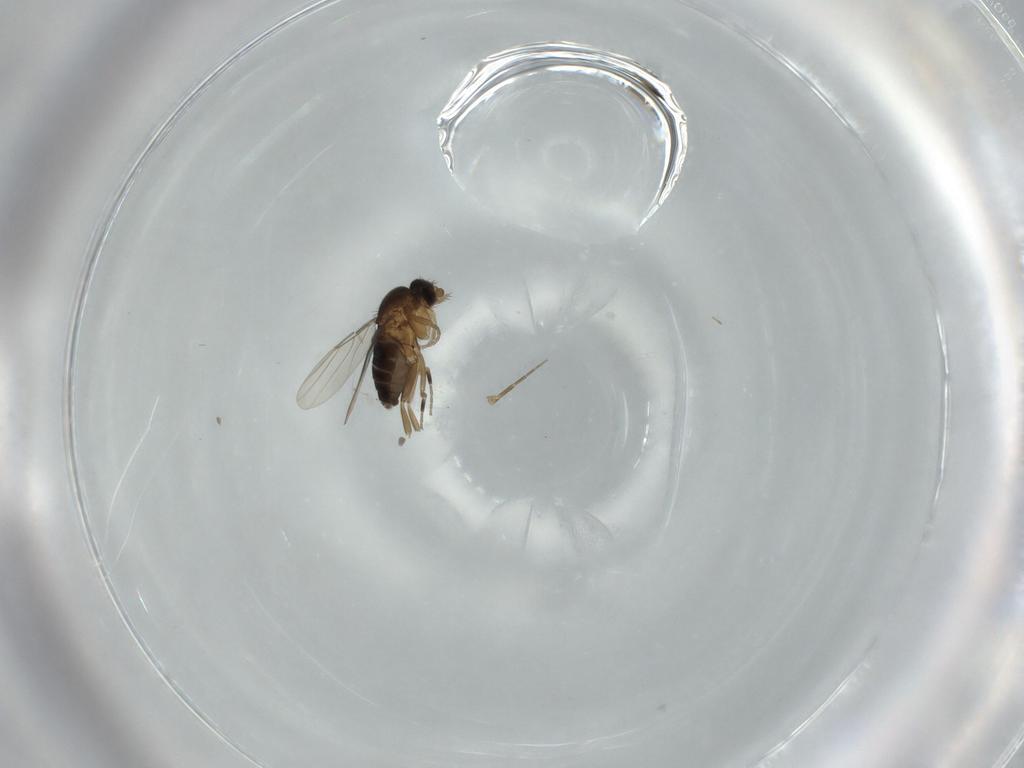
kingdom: Animalia
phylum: Arthropoda
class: Insecta
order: Diptera
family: Phoridae
